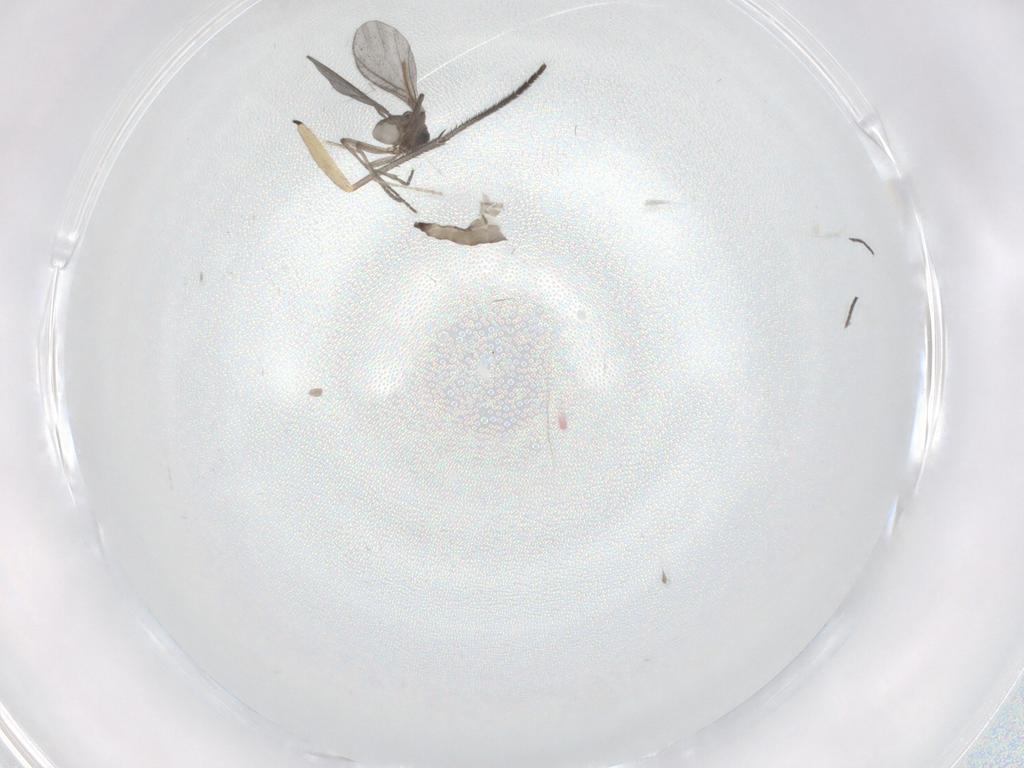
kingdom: Animalia
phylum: Arthropoda
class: Insecta
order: Diptera
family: Sciaridae
